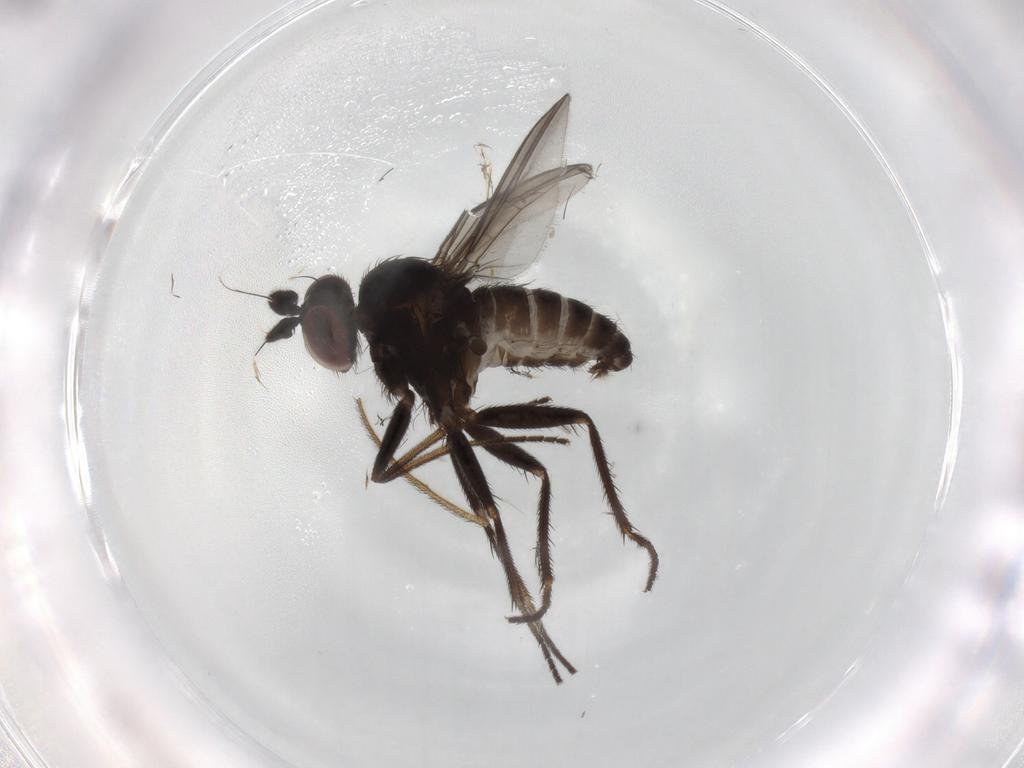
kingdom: Animalia
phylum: Arthropoda
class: Insecta
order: Diptera
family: Dolichopodidae
